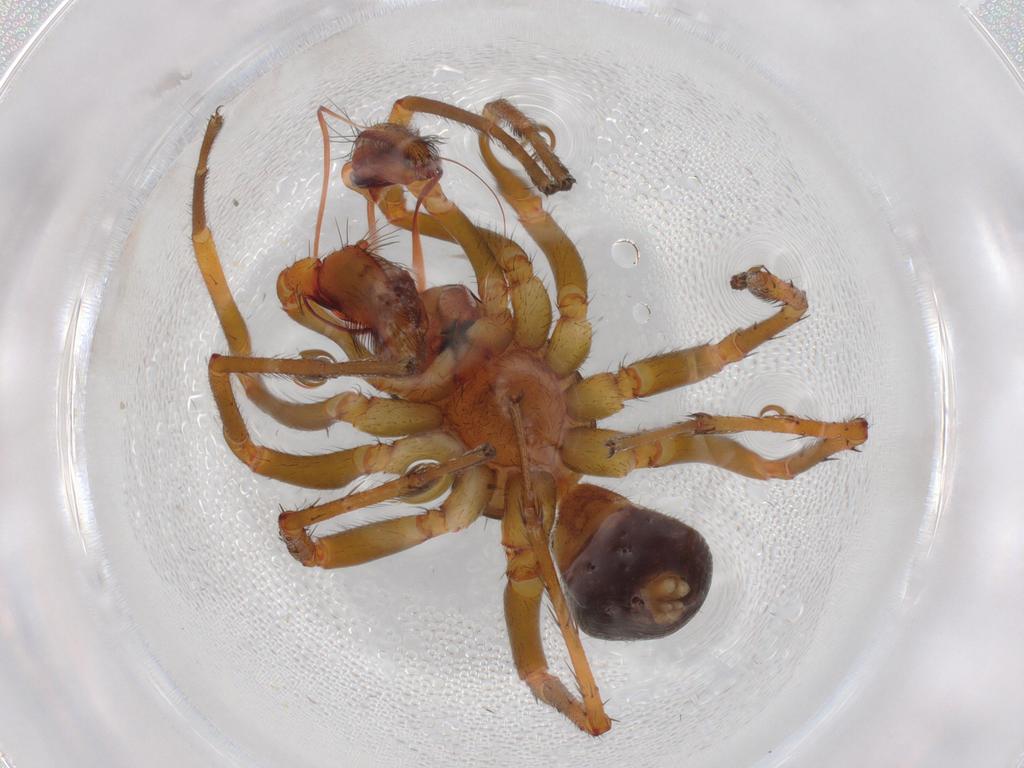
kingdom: Animalia
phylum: Arthropoda
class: Arachnida
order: Araneae
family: Zodariidae
